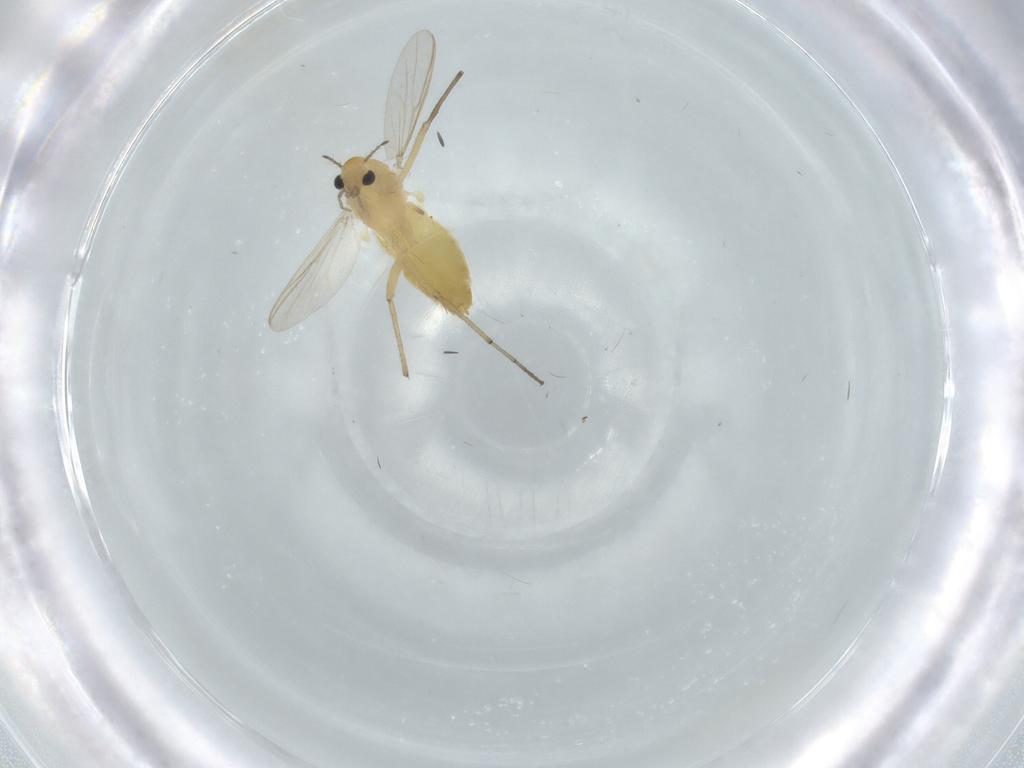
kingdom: Animalia
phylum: Arthropoda
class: Insecta
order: Diptera
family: Chironomidae
